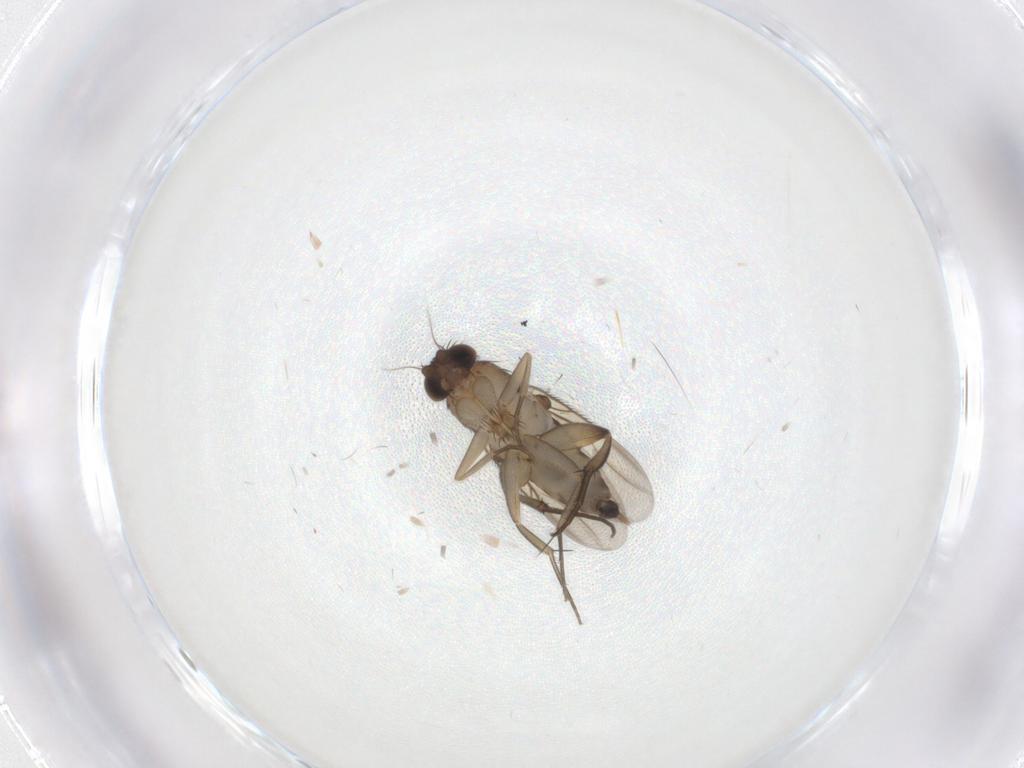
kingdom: Animalia
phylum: Arthropoda
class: Insecta
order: Diptera
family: Phoridae
